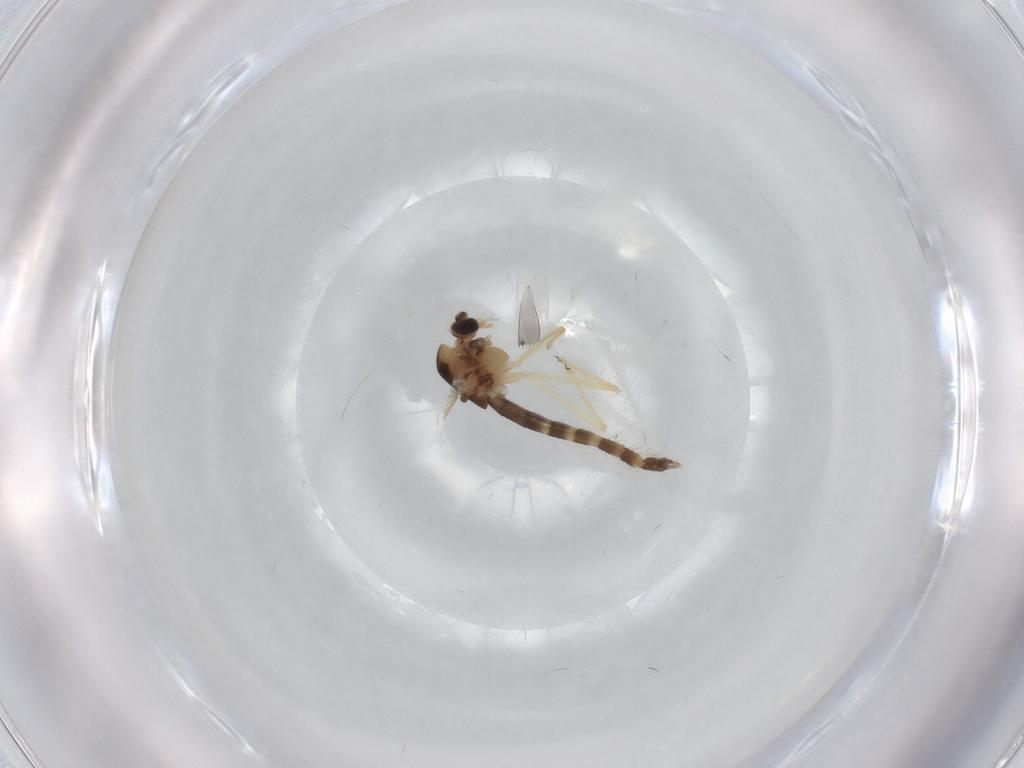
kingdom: Animalia
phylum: Arthropoda
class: Insecta
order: Diptera
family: Chironomidae
